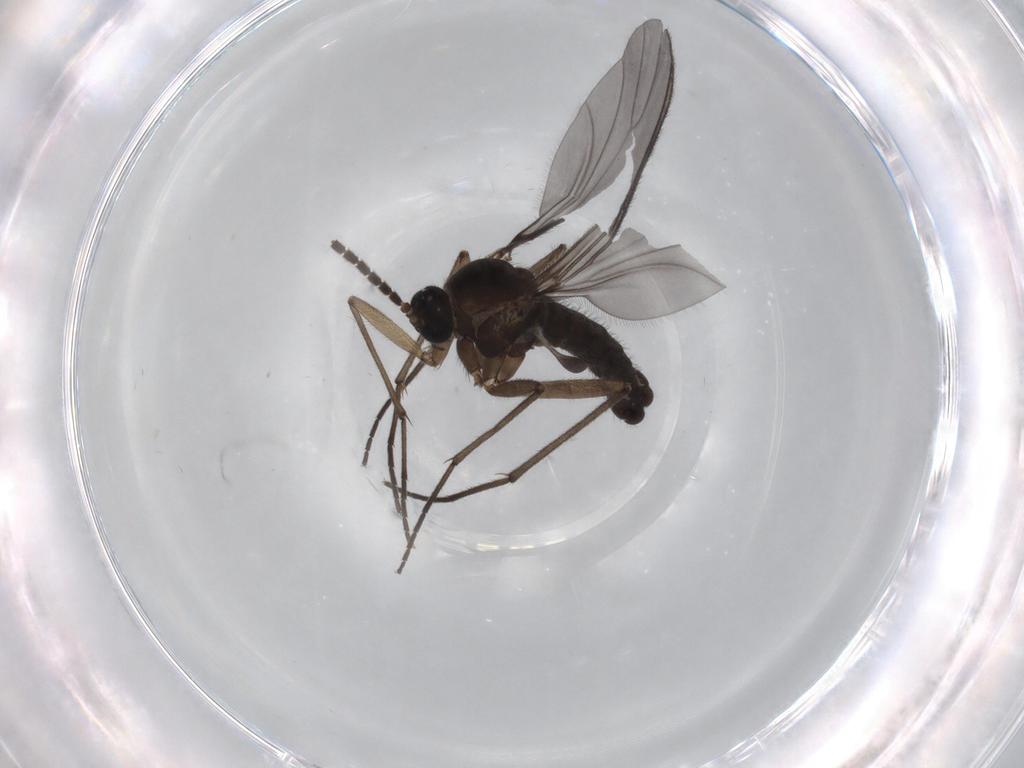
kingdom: Animalia
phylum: Arthropoda
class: Insecta
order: Diptera
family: Sciaridae
